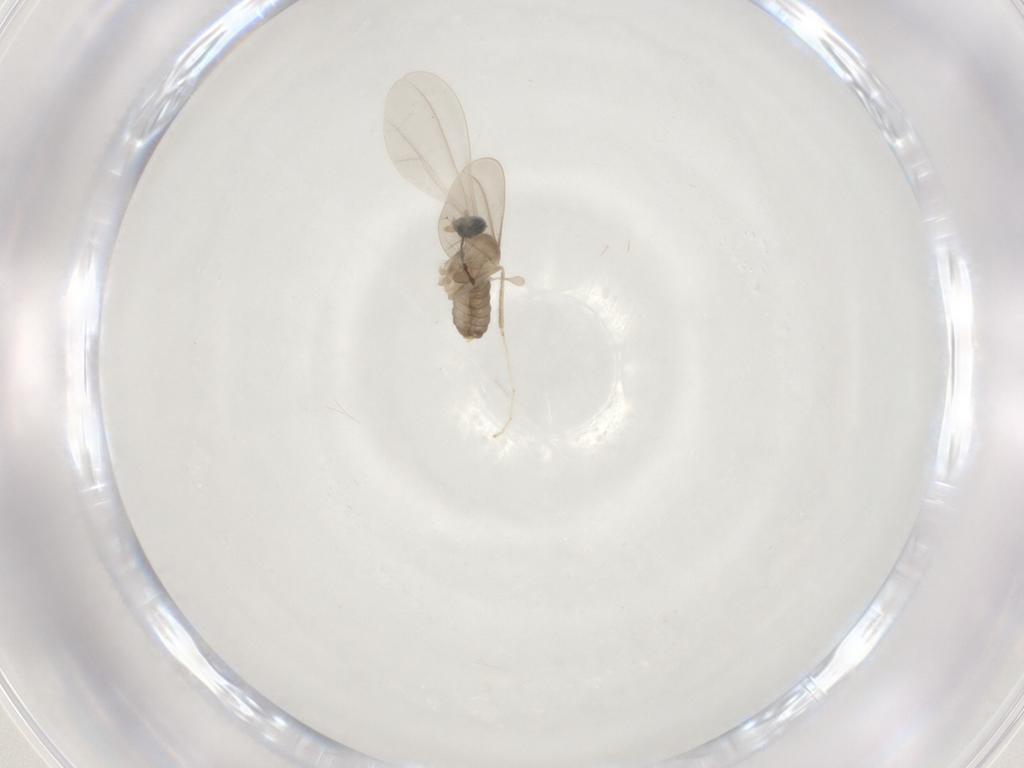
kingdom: Animalia
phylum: Arthropoda
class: Insecta
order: Diptera
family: Cecidomyiidae
